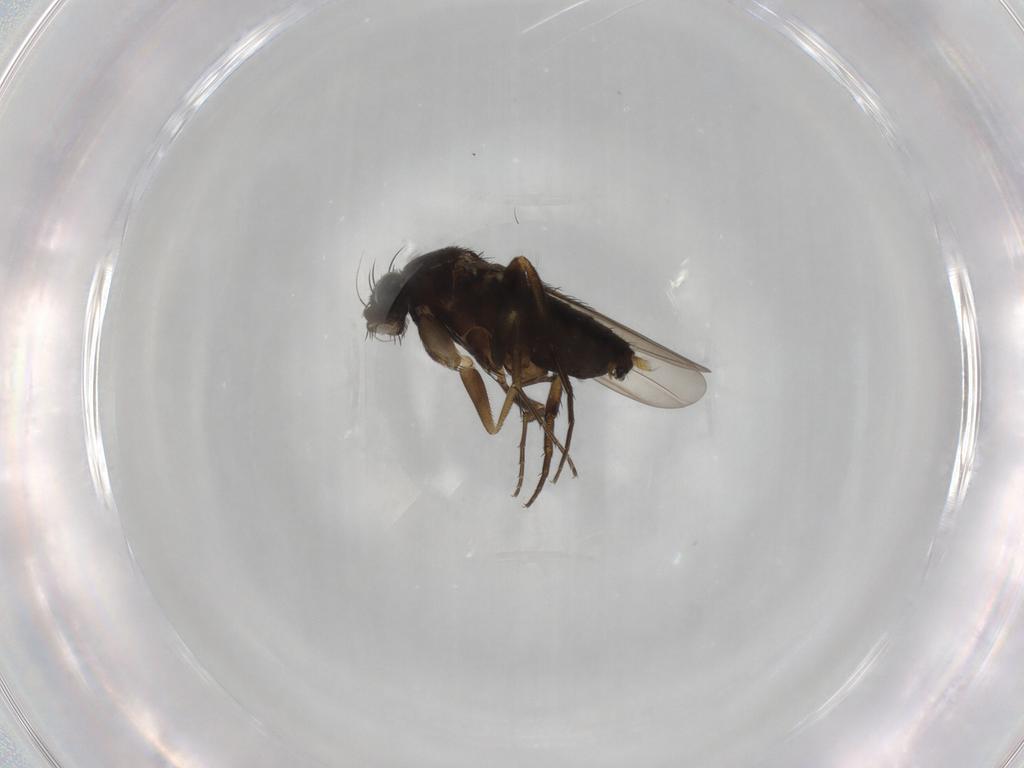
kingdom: Animalia
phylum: Arthropoda
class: Insecta
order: Diptera
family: Phoridae
